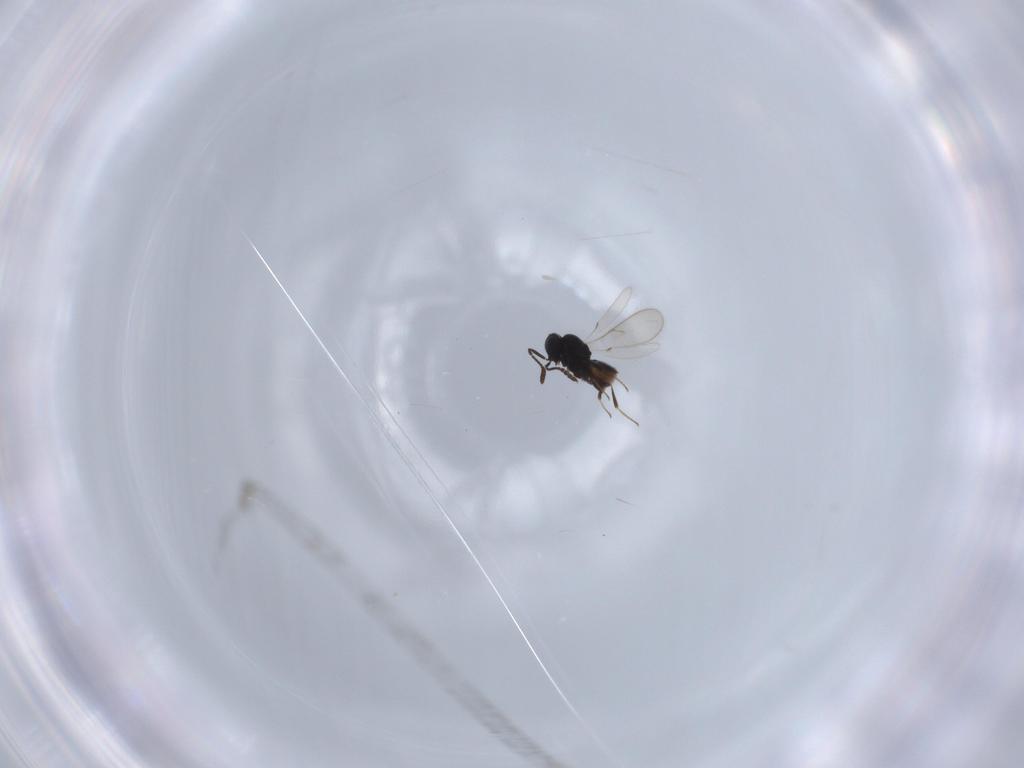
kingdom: Animalia
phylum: Arthropoda
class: Insecta
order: Hymenoptera
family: Scelionidae
